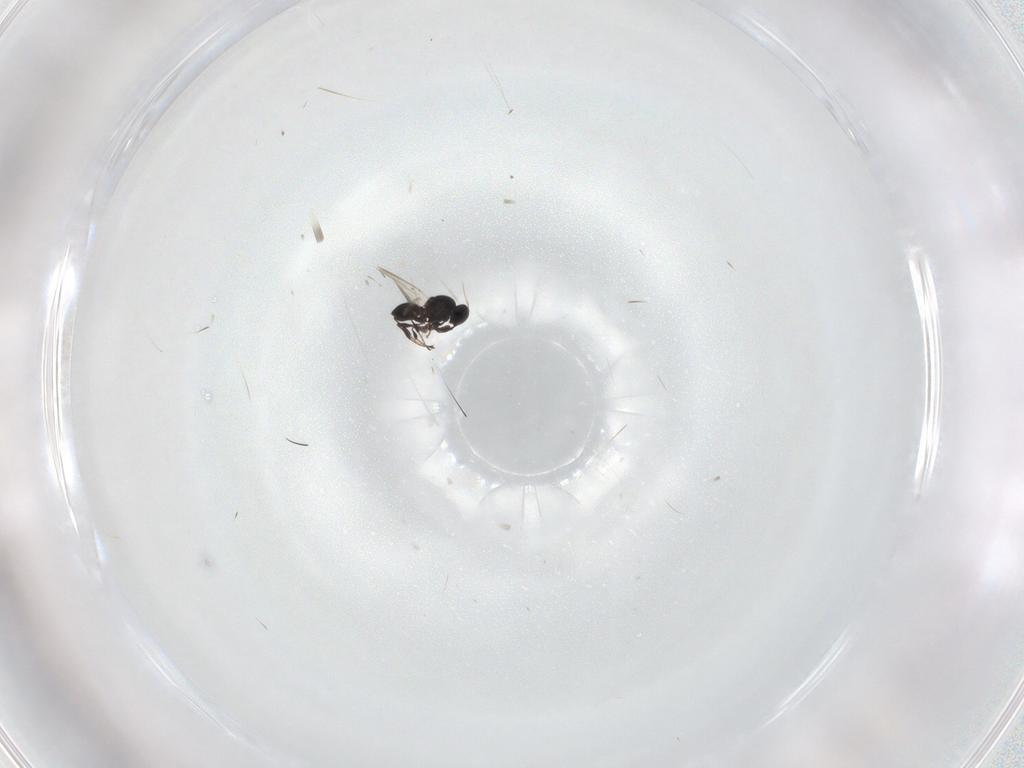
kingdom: Animalia
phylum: Arthropoda
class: Insecta
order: Hymenoptera
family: Platygastridae
